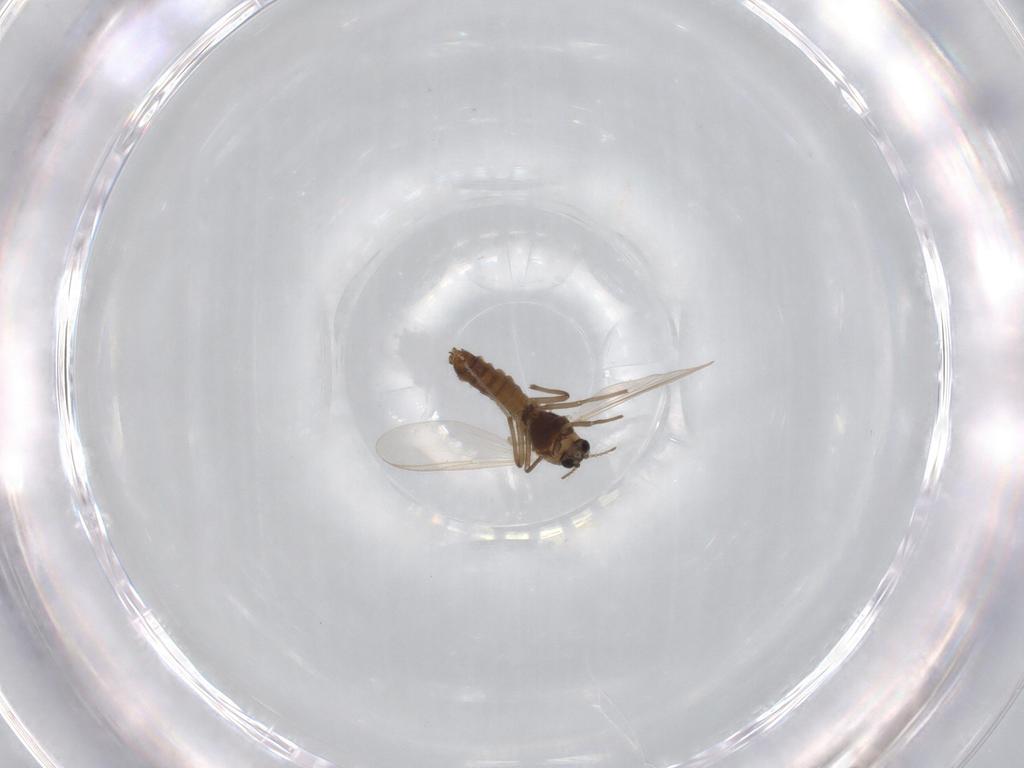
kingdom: Animalia
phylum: Arthropoda
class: Insecta
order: Diptera
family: Chironomidae
